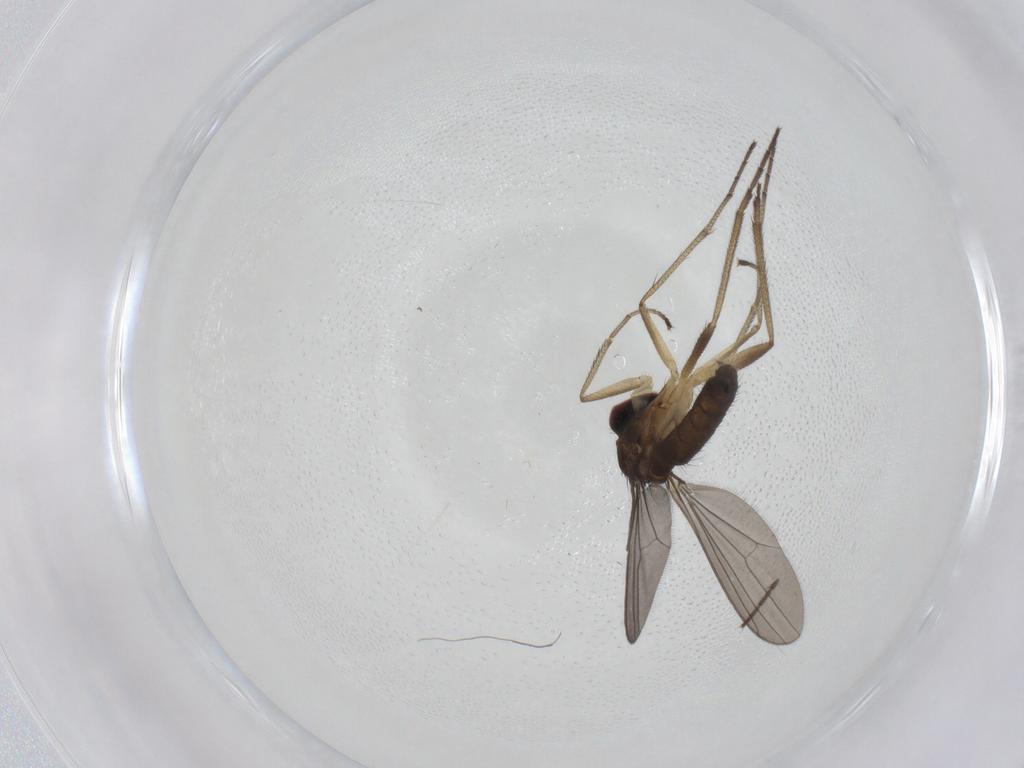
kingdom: Animalia
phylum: Arthropoda
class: Insecta
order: Diptera
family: Dolichopodidae
